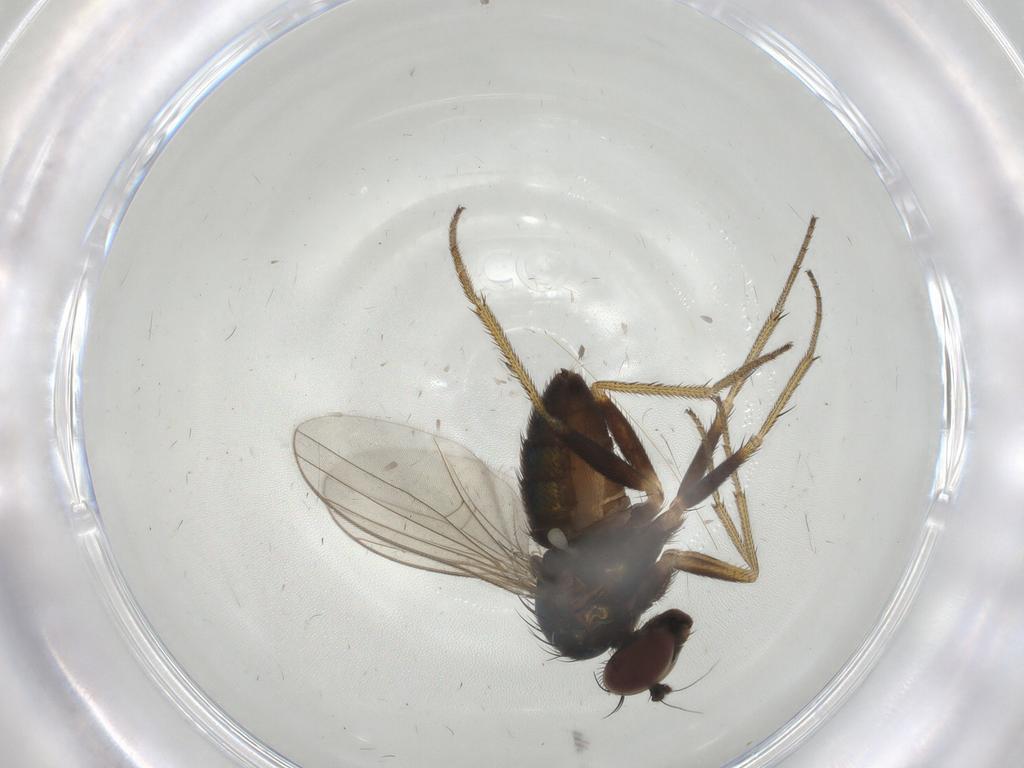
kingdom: Animalia
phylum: Arthropoda
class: Insecta
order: Diptera
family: Dolichopodidae
